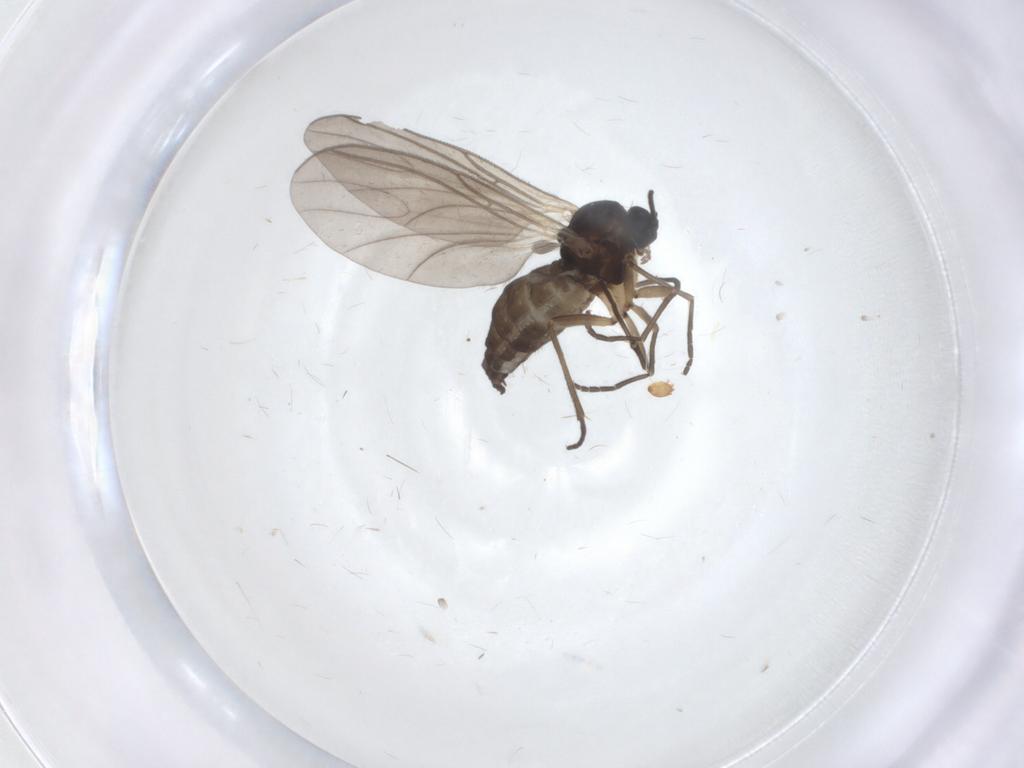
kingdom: Animalia
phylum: Arthropoda
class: Insecta
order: Diptera
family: Sciaridae
